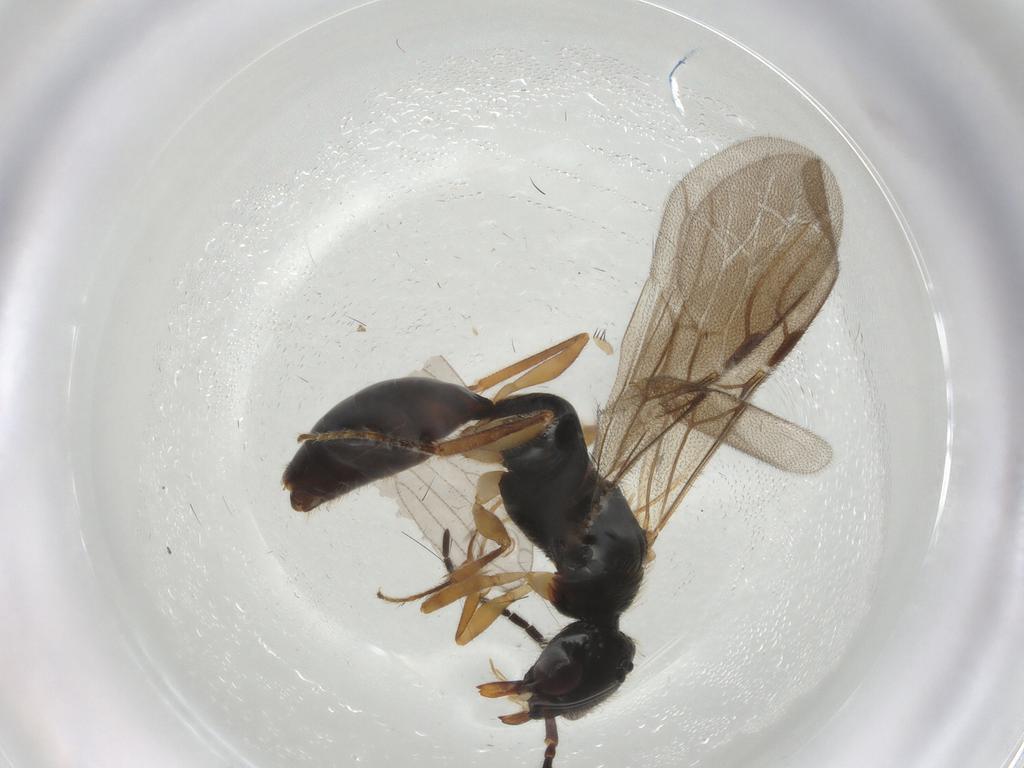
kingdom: Animalia
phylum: Arthropoda
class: Insecta
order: Hymenoptera
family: Bethylidae
